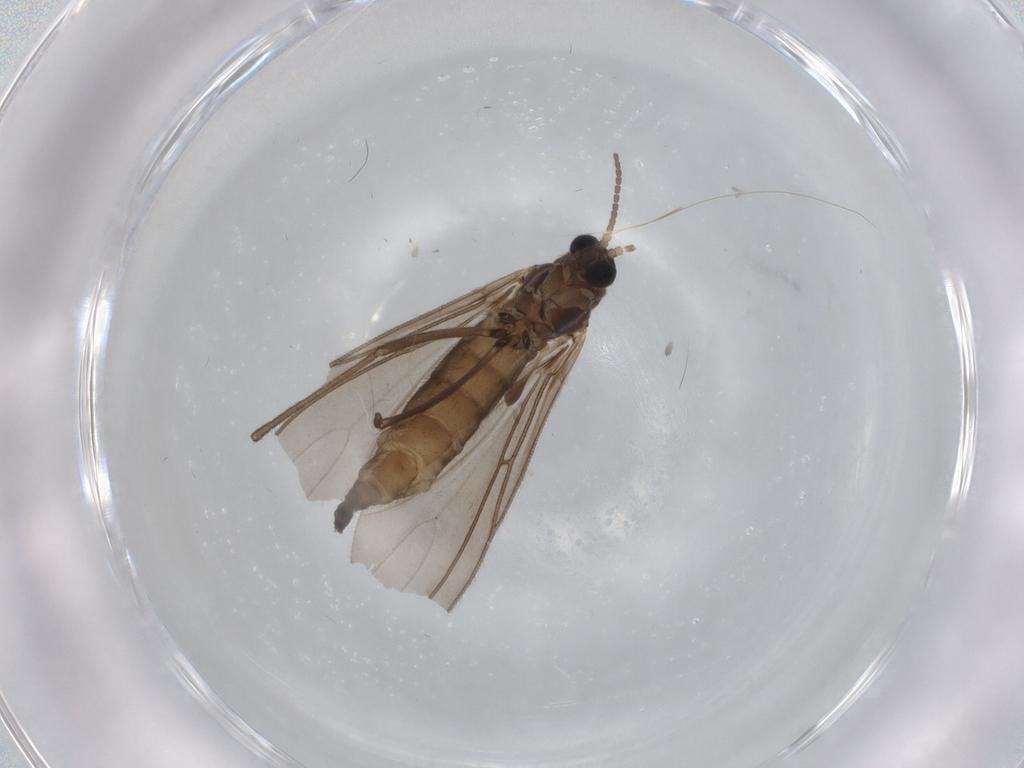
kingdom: Animalia
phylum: Arthropoda
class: Insecta
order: Diptera
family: Sciaridae
